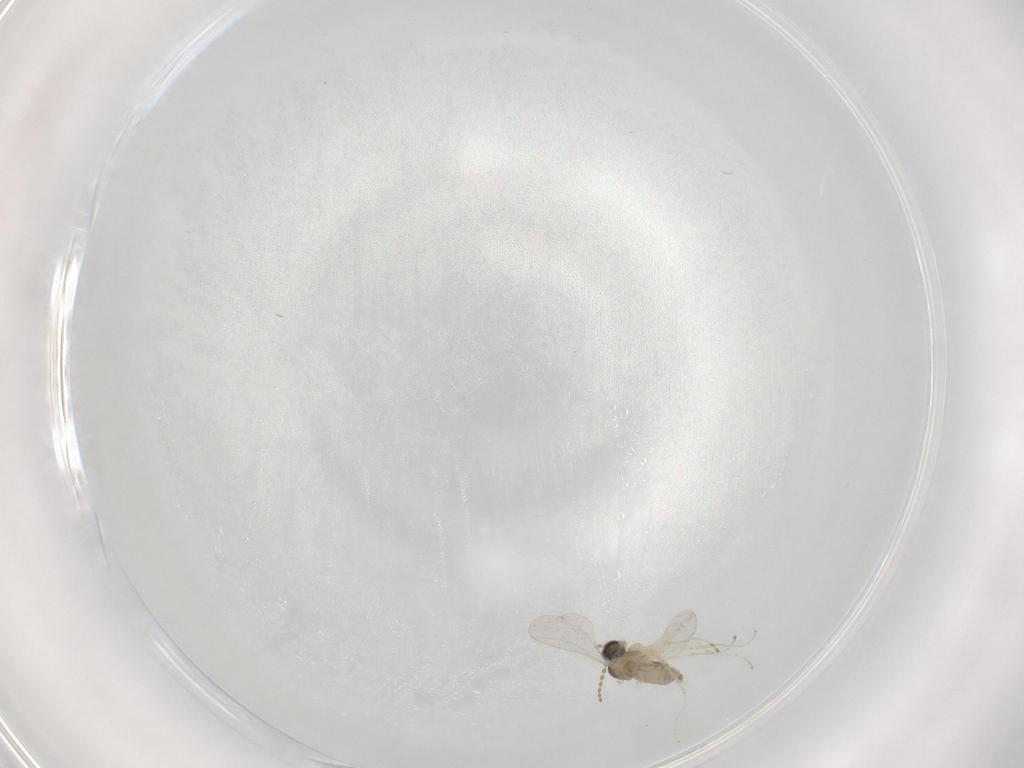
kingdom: Animalia
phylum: Arthropoda
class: Insecta
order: Diptera
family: Cecidomyiidae
